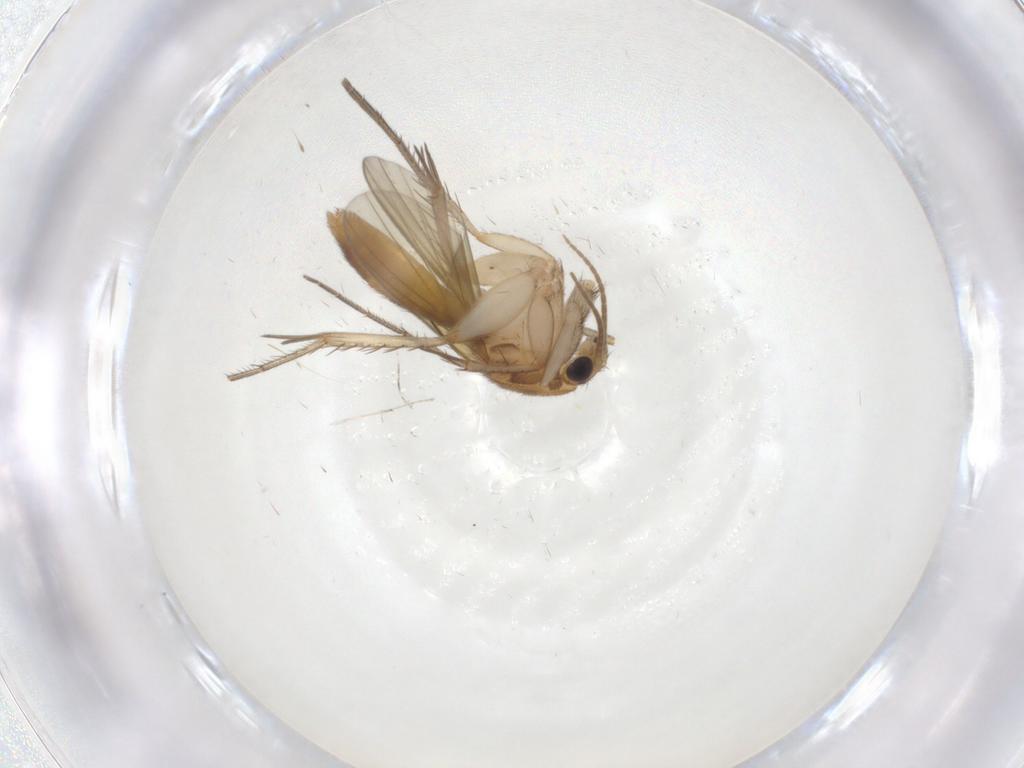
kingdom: Animalia
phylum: Arthropoda
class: Insecta
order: Diptera
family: Mycetophilidae
